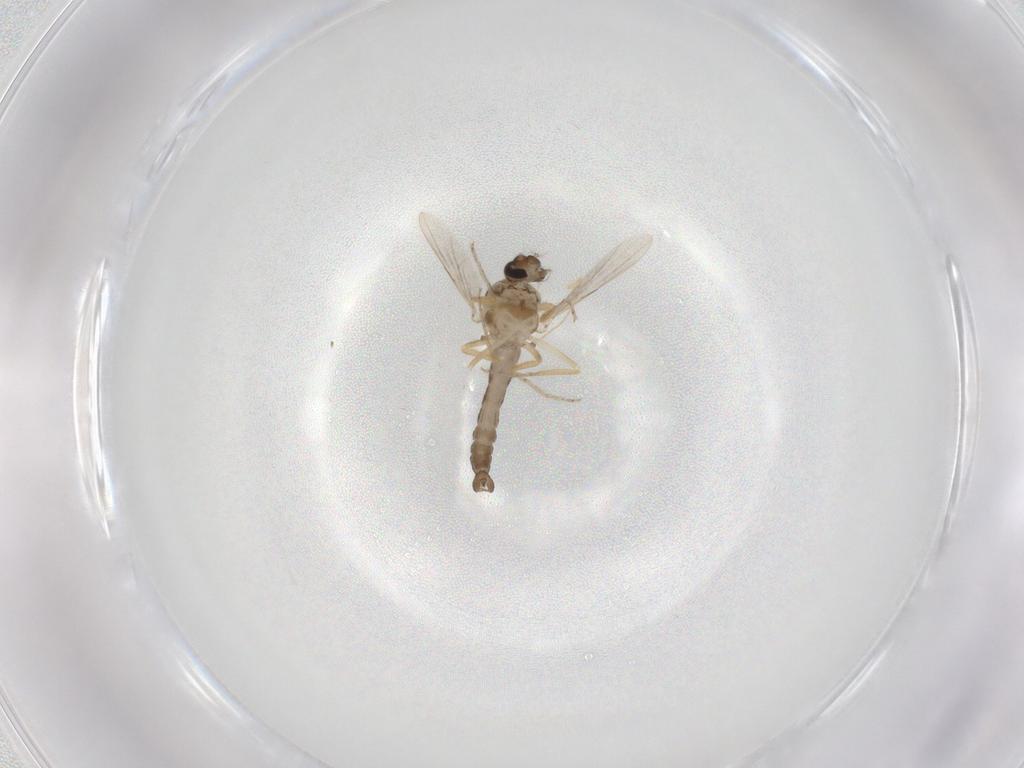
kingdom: Animalia
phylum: Arthropoda
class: Insecta
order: Diptera
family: Ceratopogonidae
